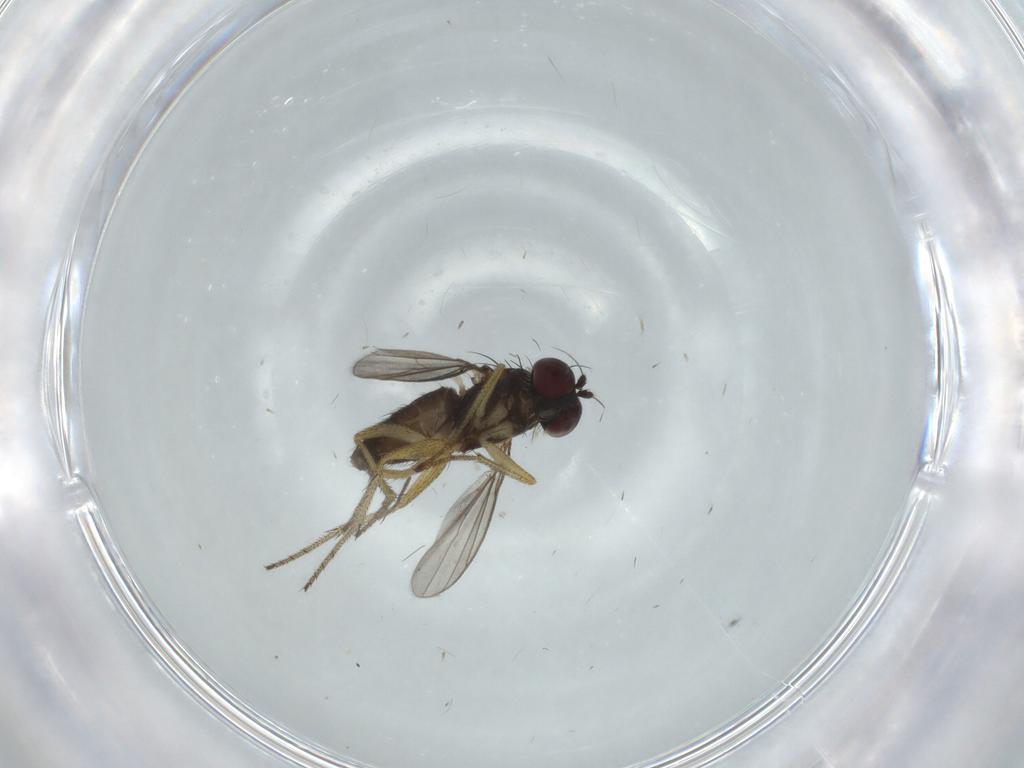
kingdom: Animalia
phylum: Arthropoda
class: Insecta
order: Diptera
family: Dolichopodidae
